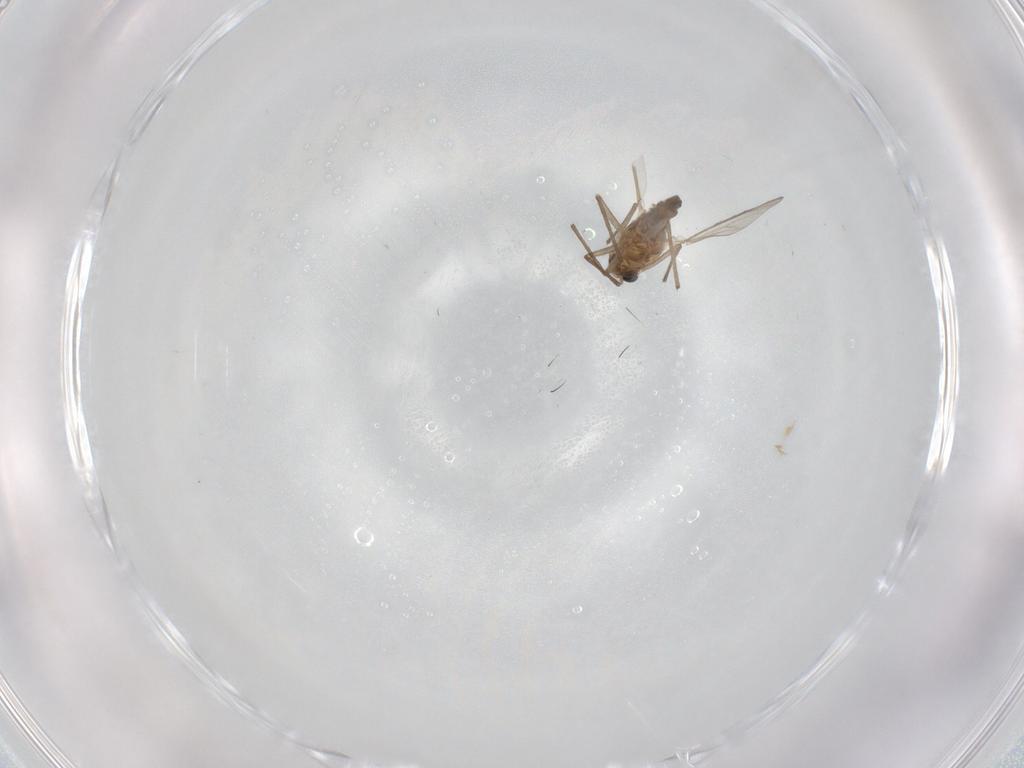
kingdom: Animalia
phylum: Arthropoda
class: Insecta
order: Diptera
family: Chironomidae
